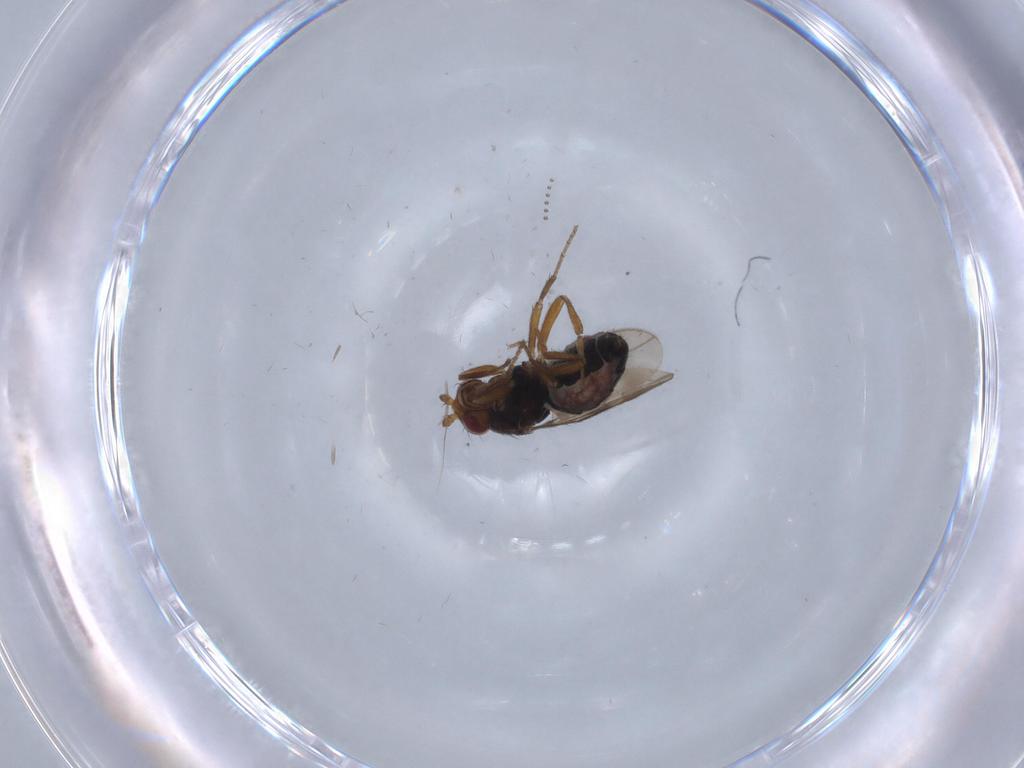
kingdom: Animalia
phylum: Arthropoda
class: Insecta
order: Diptera
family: Sphaeroceridae
